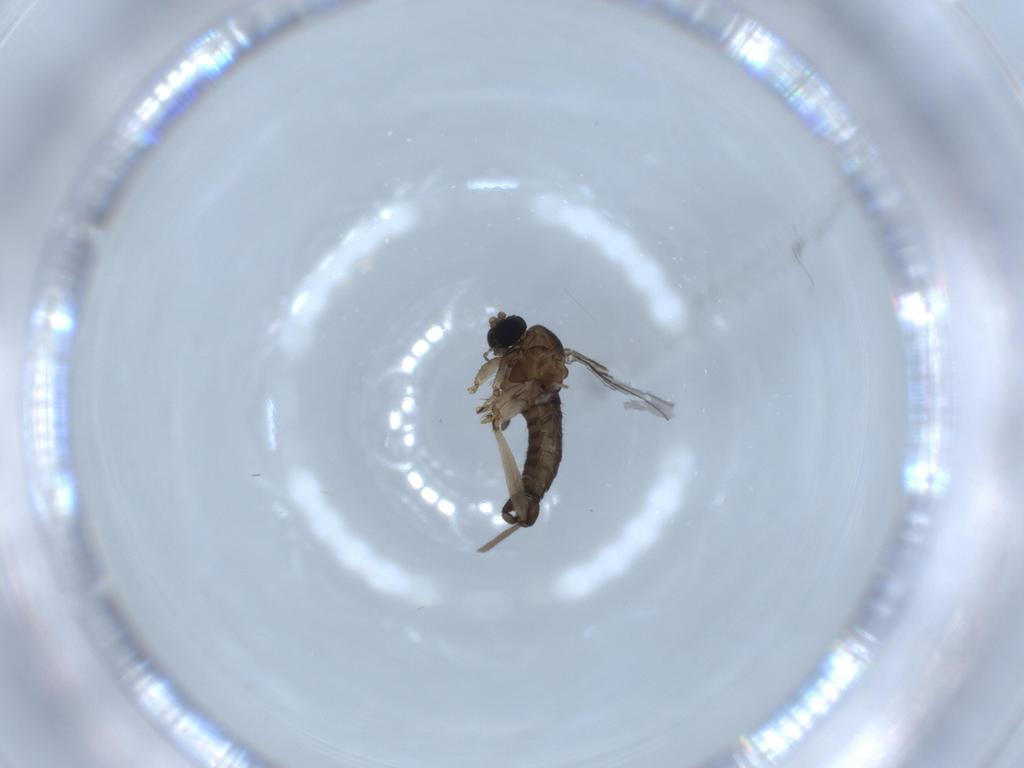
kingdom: Animalia
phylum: Arthropoda
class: Insecta
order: Diptera
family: Sciaridae
